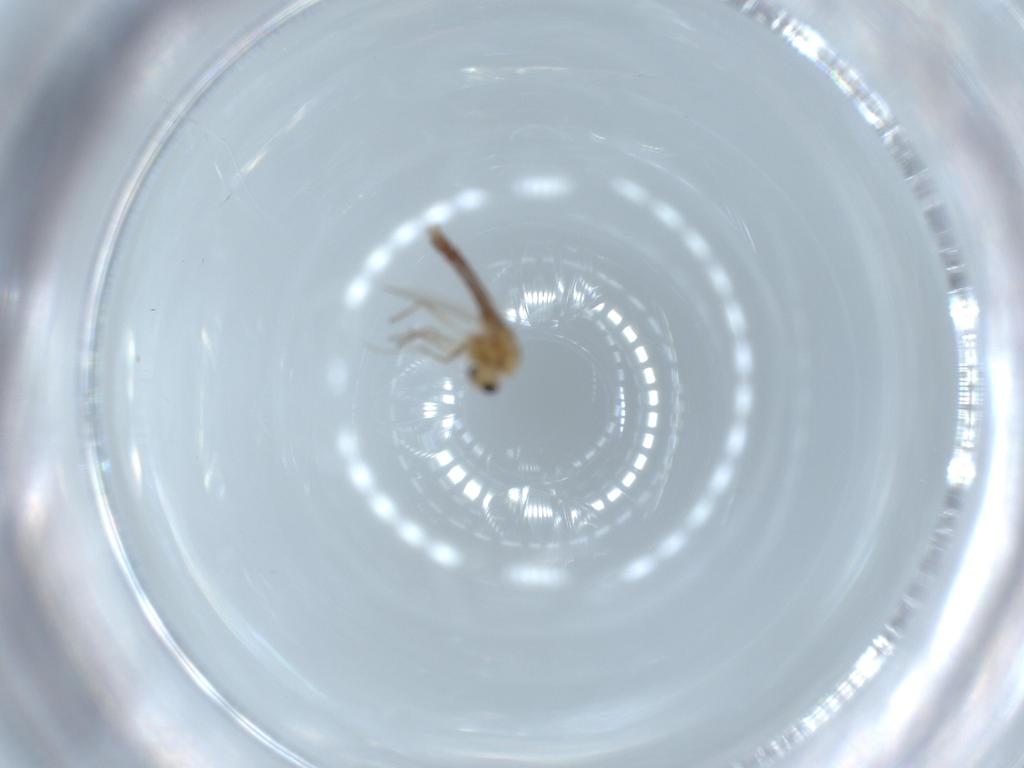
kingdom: Animalia
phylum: Arthropoda
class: Insecta
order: Diptera
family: Chironomidae
